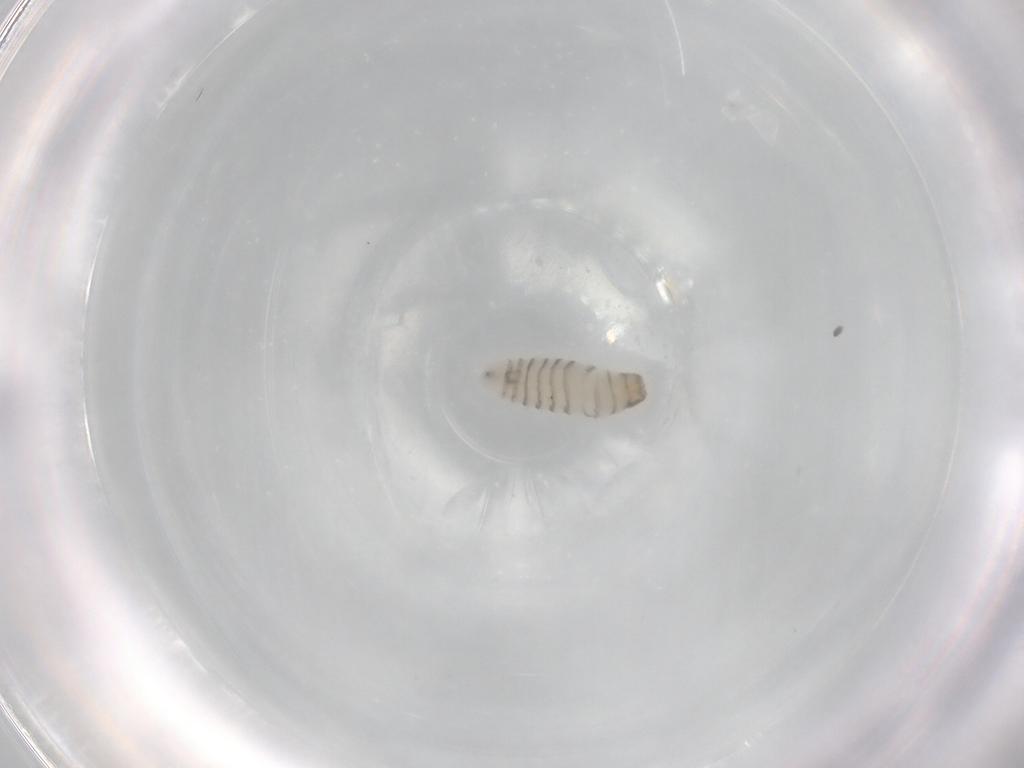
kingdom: Animalia
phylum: Arthropoda
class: Insecta
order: Diptera
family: Sarcophagidae
